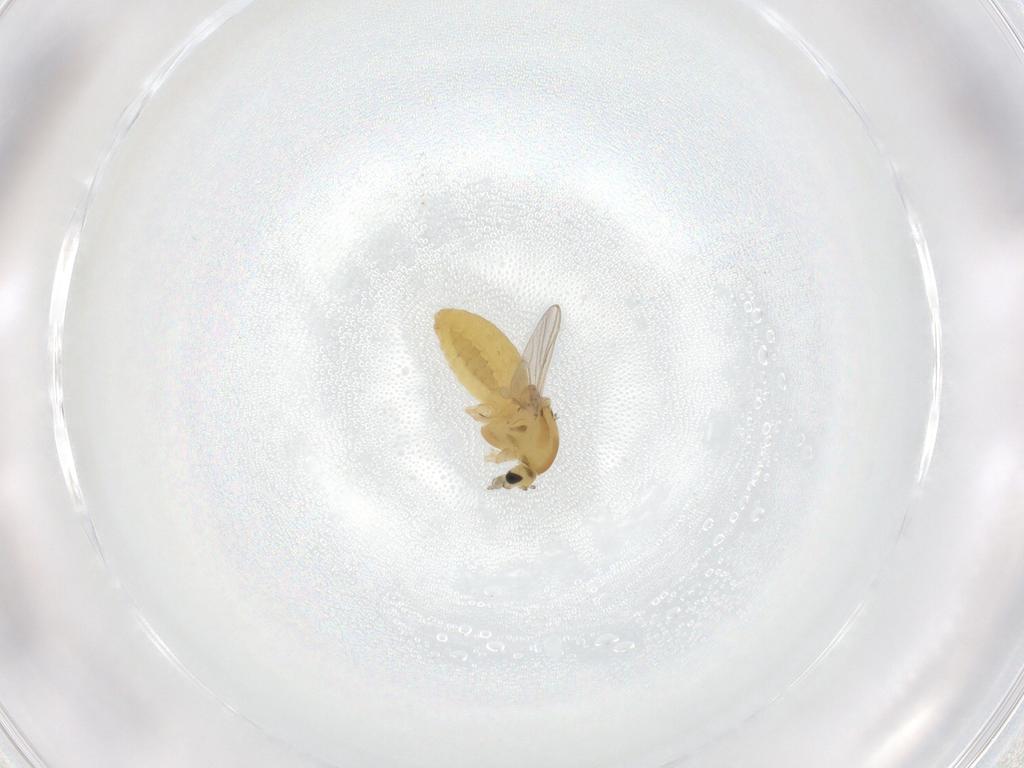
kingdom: Animalia
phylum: Arthropoda
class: Insecta
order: Diptera
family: Chironomidae
